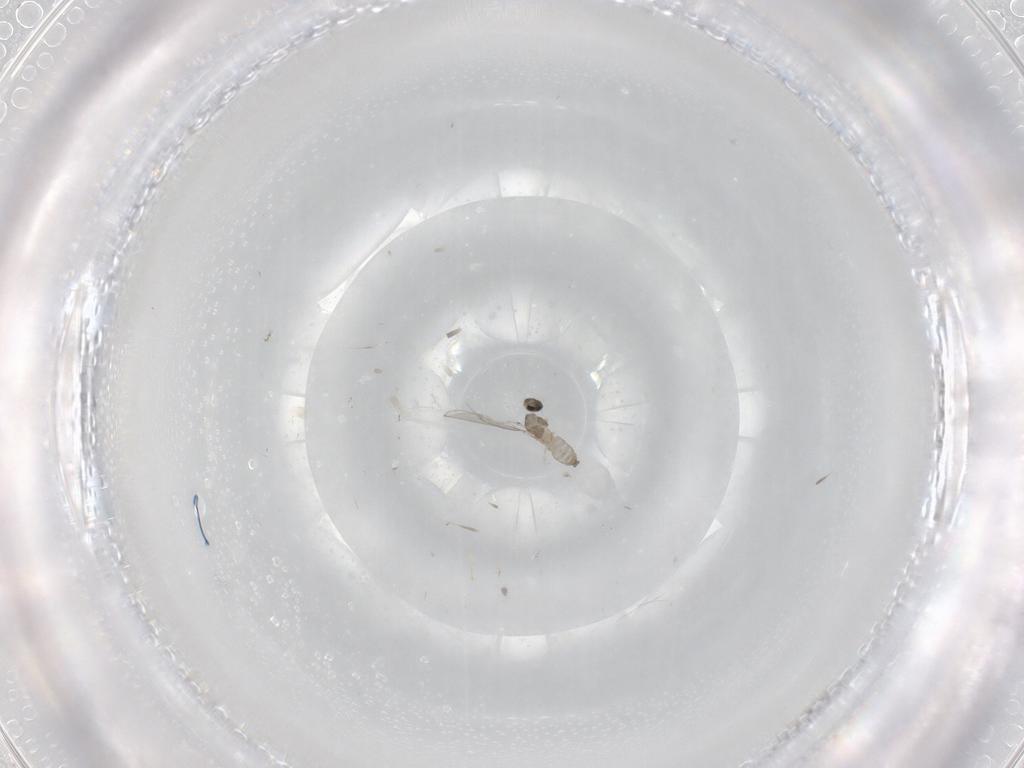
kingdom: Animalia
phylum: Arthropoda
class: Insecta
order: Diptera
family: Cecidomyiidae
